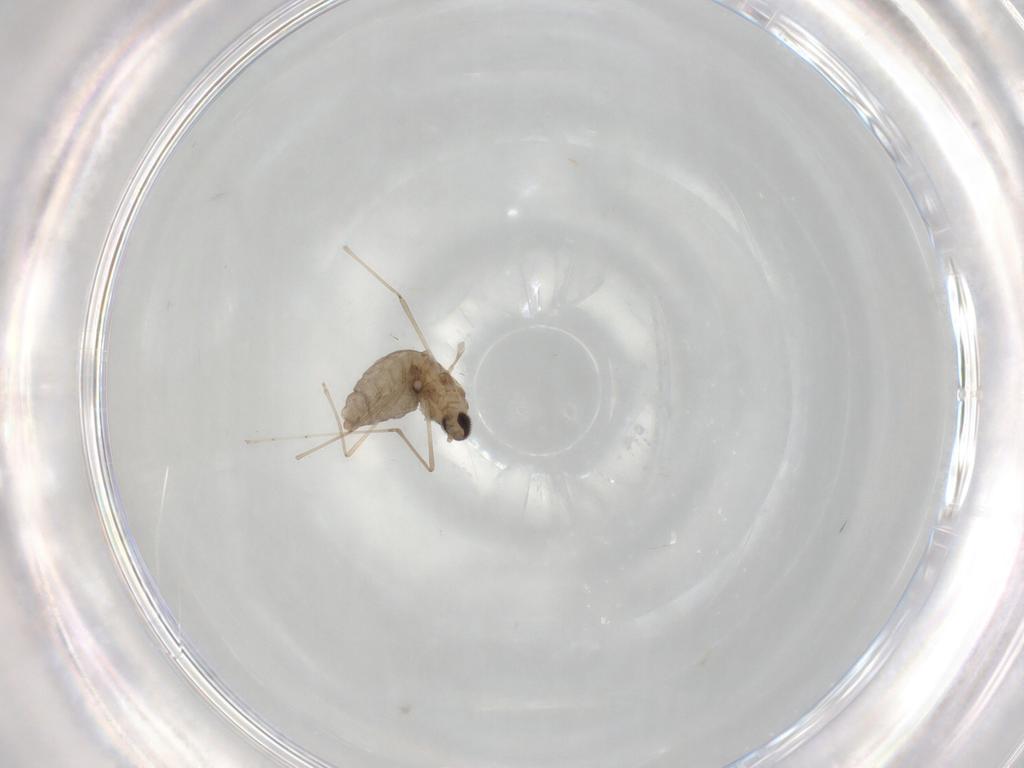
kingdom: Animalia
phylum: Arthropoda
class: Insecta
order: Diptera
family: Cecidomyiidae
